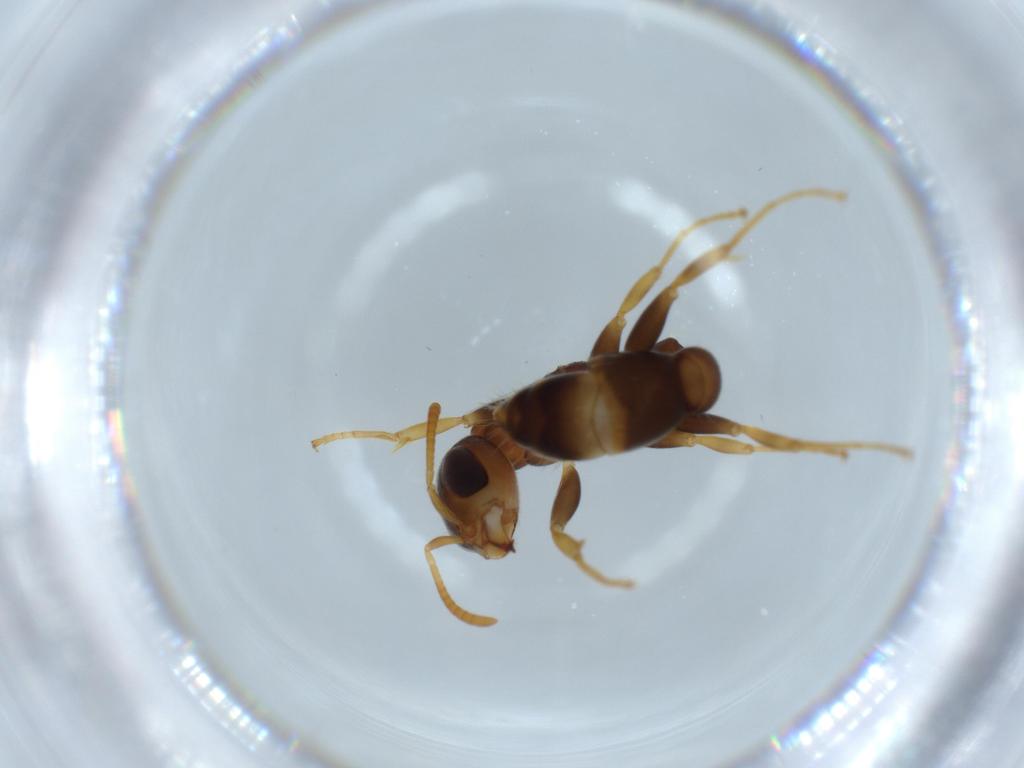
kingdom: Animalia
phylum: Arthropoda
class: Insecta
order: Hymenoptera
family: Formicidae
